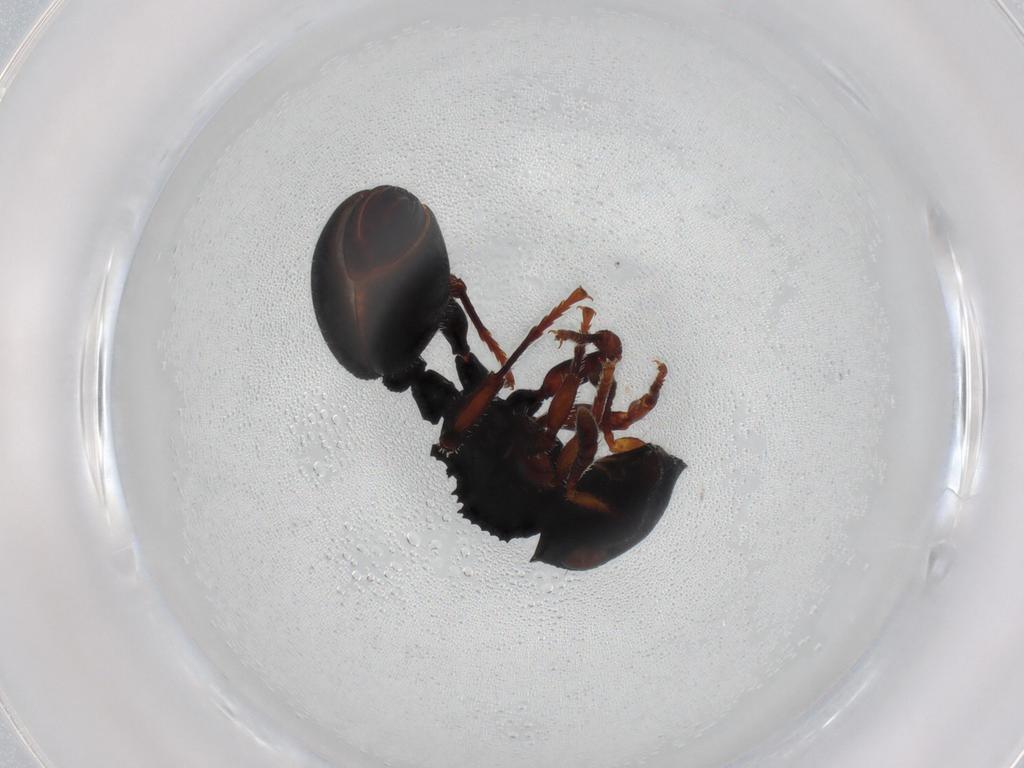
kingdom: Animalia
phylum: Arthropoda
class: Insecta
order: Hymenoptera
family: Formicidae
